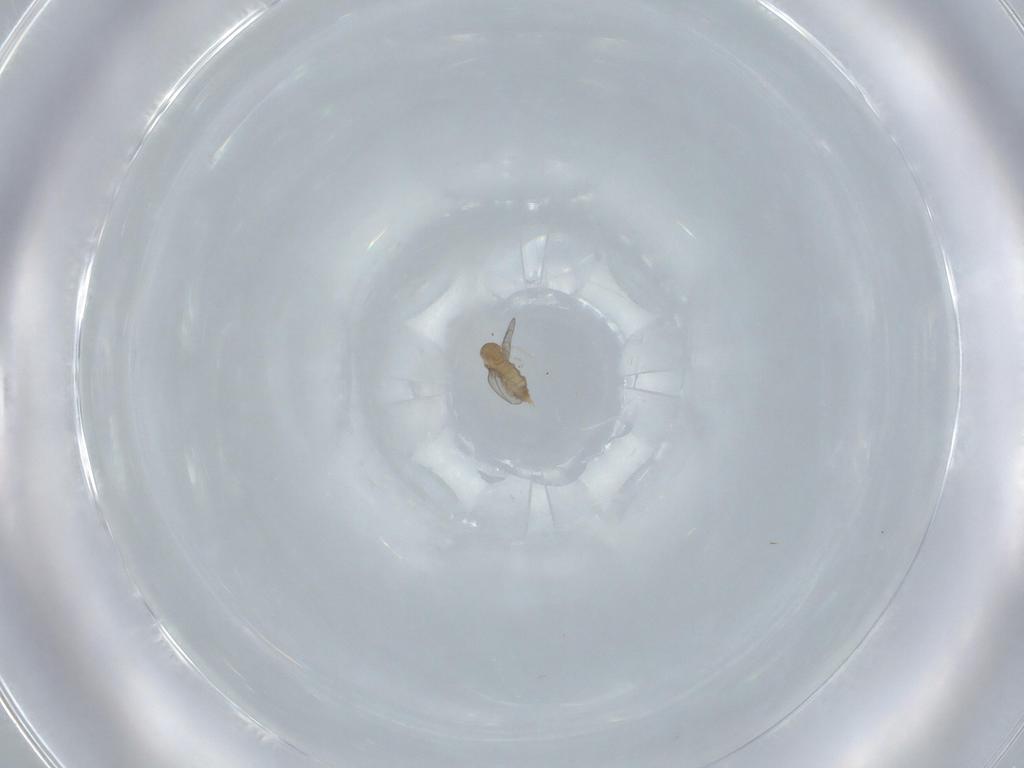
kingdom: Animalia
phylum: Arthropoda
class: Insecta
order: Diptera
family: Cecidomyiidae
